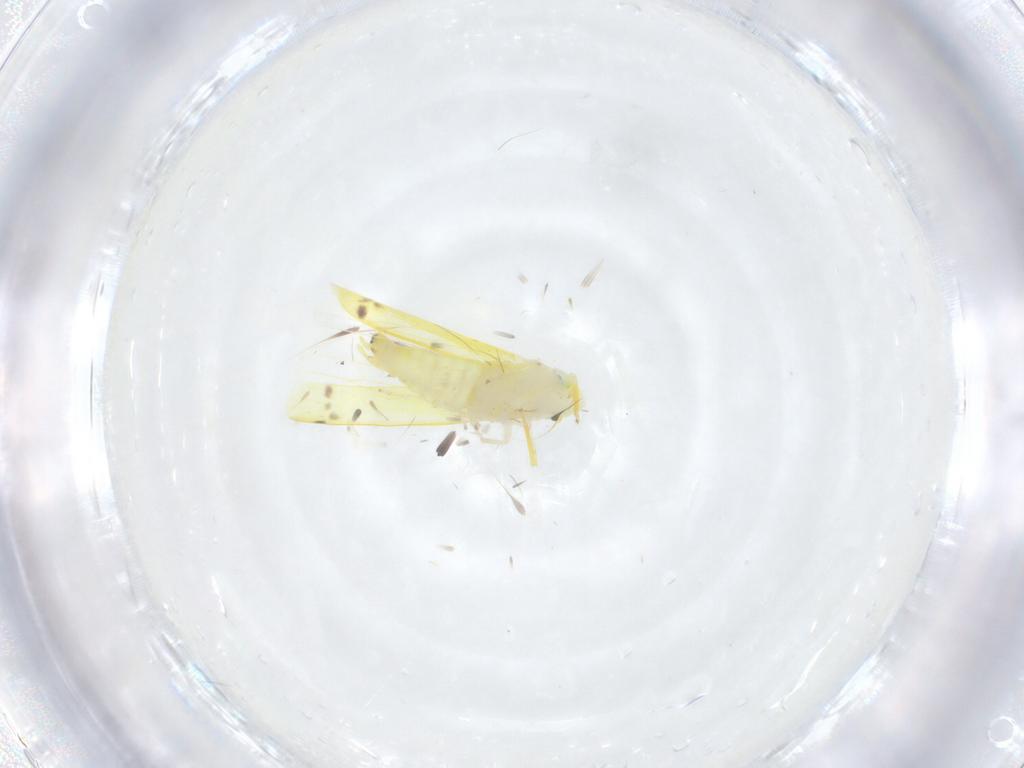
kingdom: Animalia
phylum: Arthropoda
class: Insecta
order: Hemiptera
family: Cicadellidae
